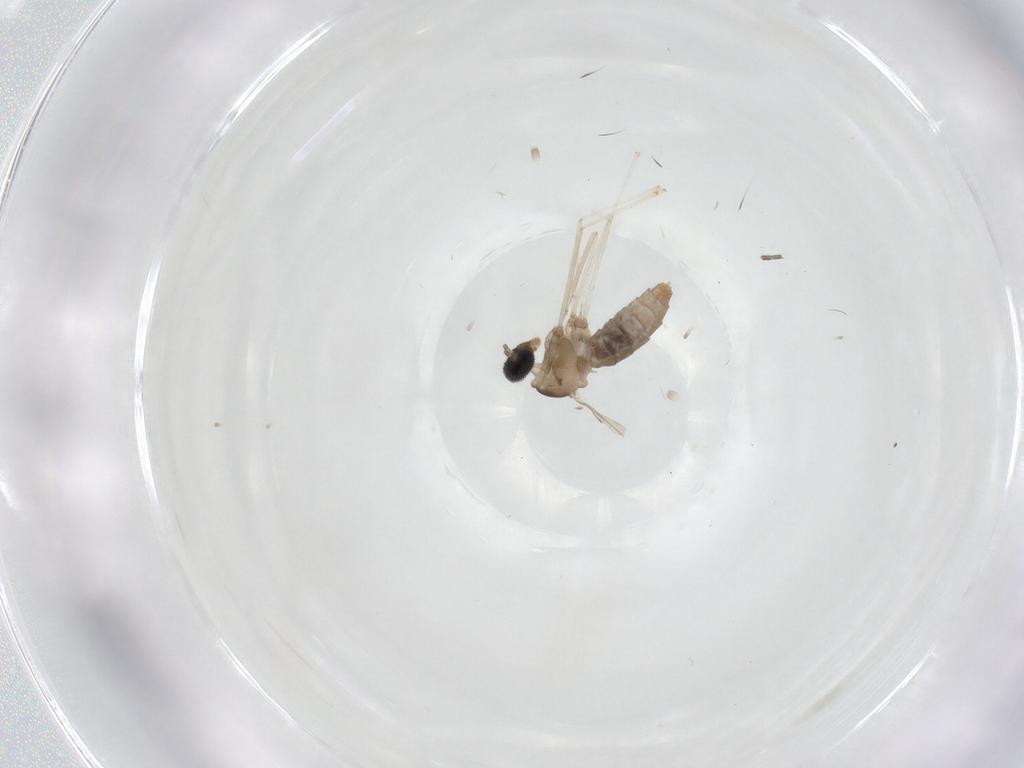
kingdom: Animalia
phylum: Arthropoda
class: Insecta
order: Diptera
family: Cecidomyiidae
